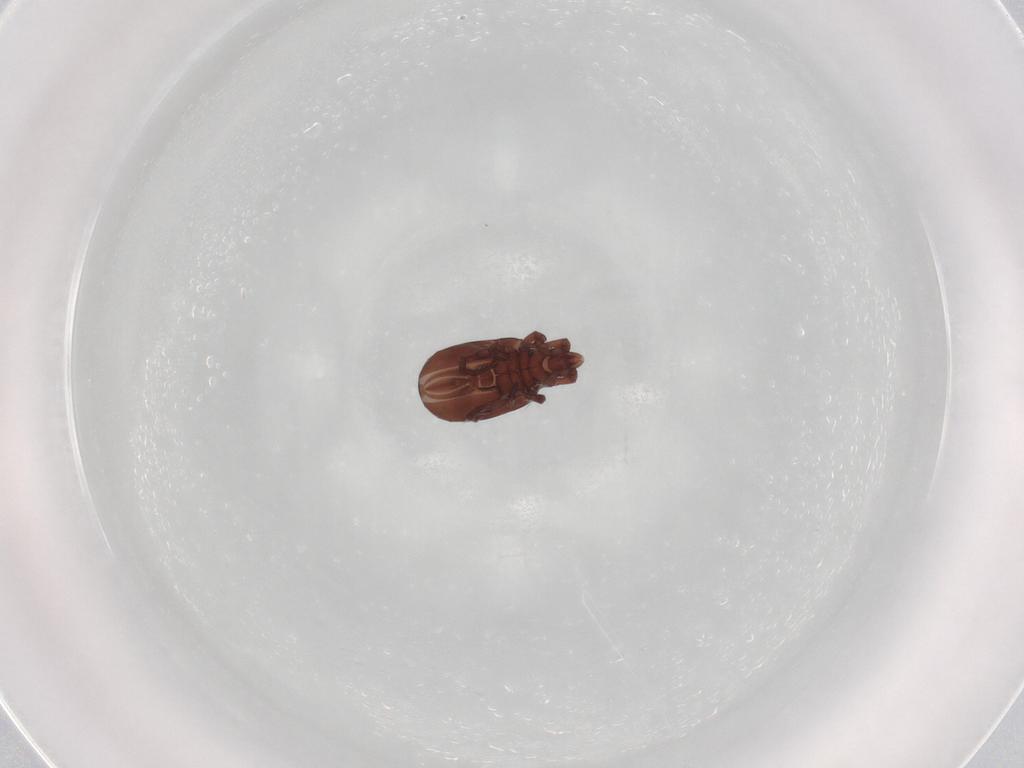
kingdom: Animalia
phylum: Arthropoda
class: Arachnida
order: Sarcoptiformes
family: Perlohmanniidae
